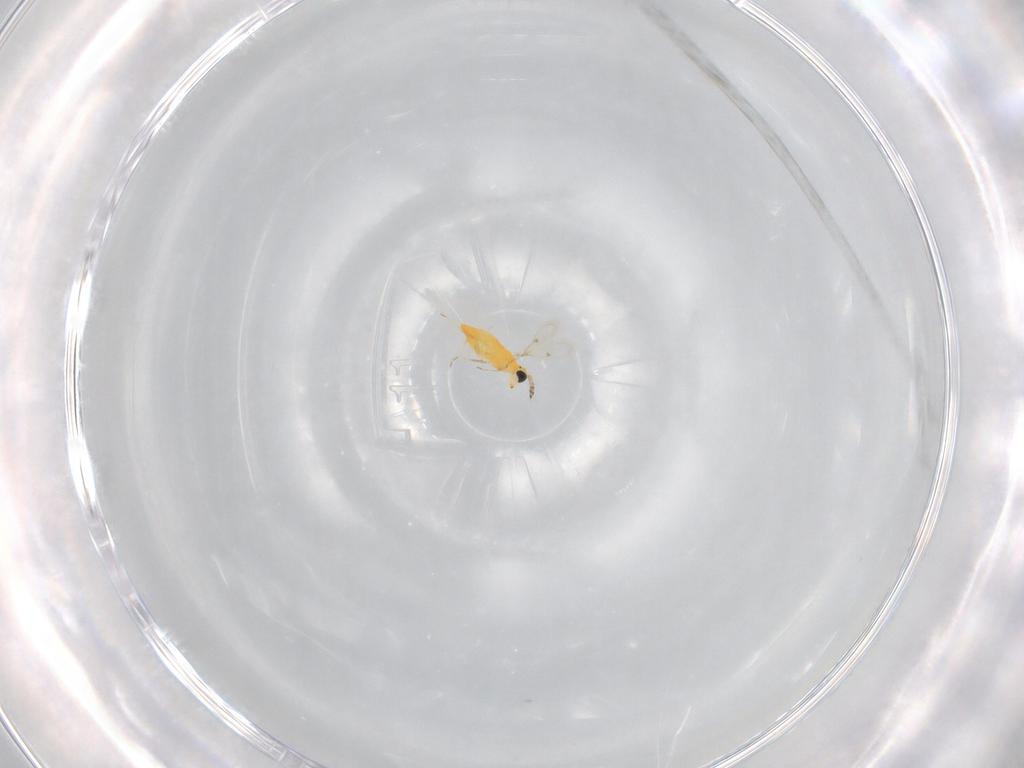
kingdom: Animalia
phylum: Arthropoda
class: Insecta
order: Hymenoptera
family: Trichogrammatidae
